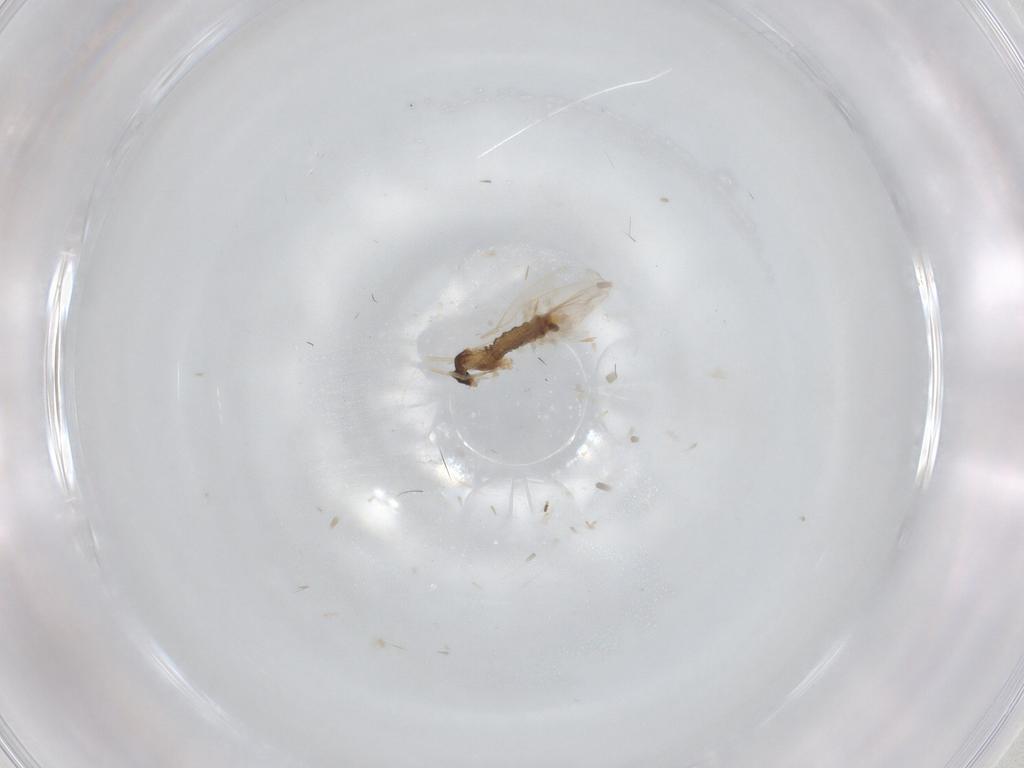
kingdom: Animalia
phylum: Arthropoda
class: Insecta
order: Diptera
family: Cecidomyiidae
